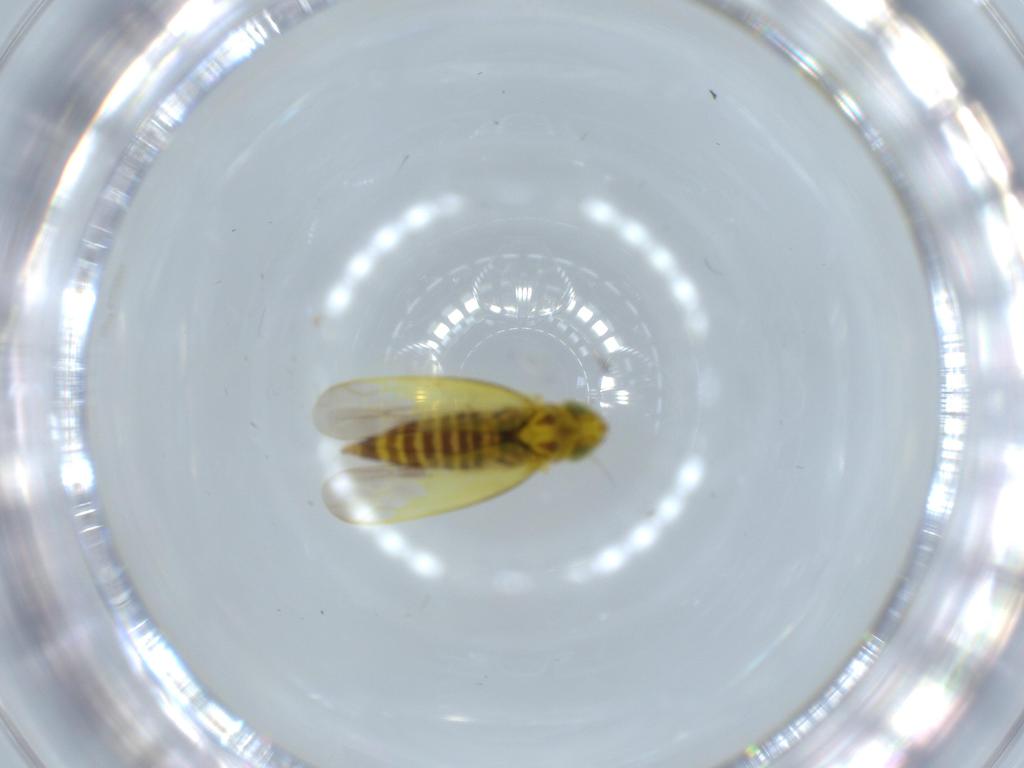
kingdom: Animalia
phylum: Arthropoda
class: Insecta
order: Hemiptera
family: Cicadellidae
